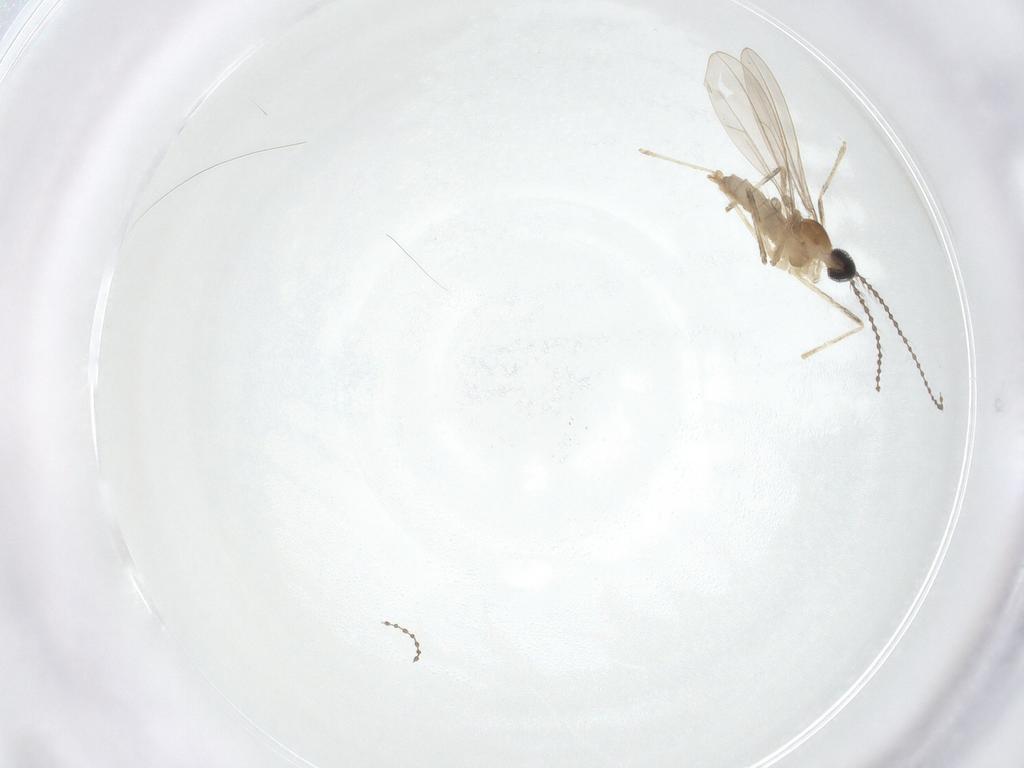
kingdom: Animalia
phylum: Arthropoda
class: Insecta
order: Diptera
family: Cecidomyiidae
